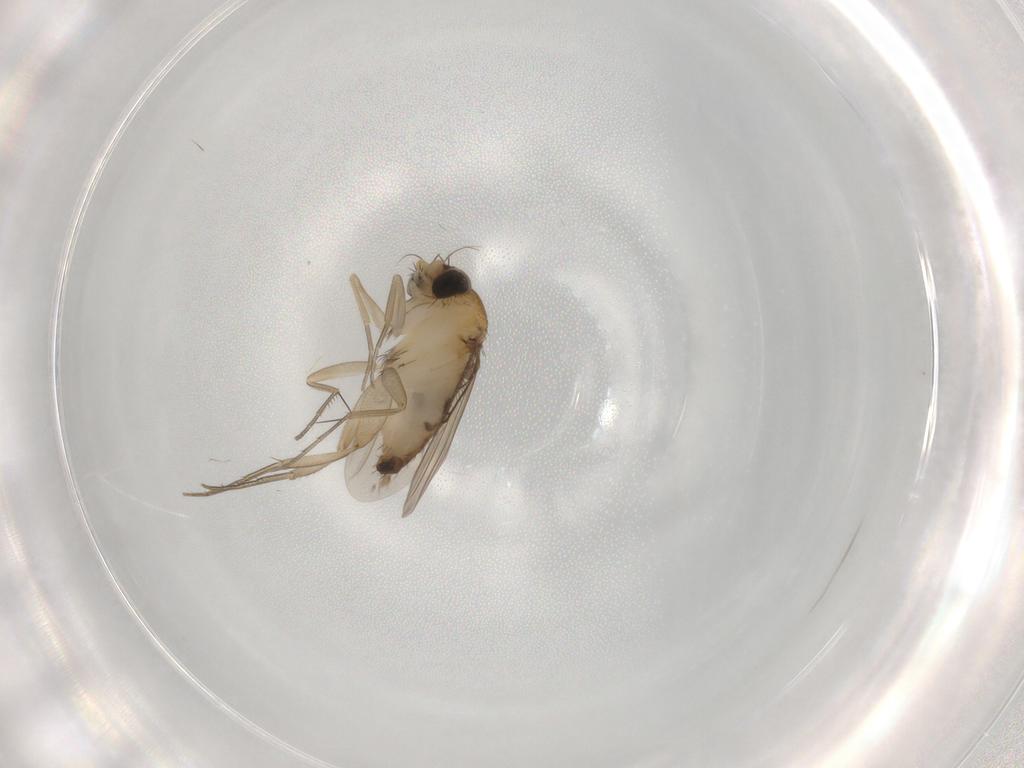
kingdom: Animalia
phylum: Arthropoda
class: Insecta
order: Diptera
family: Phoridae
